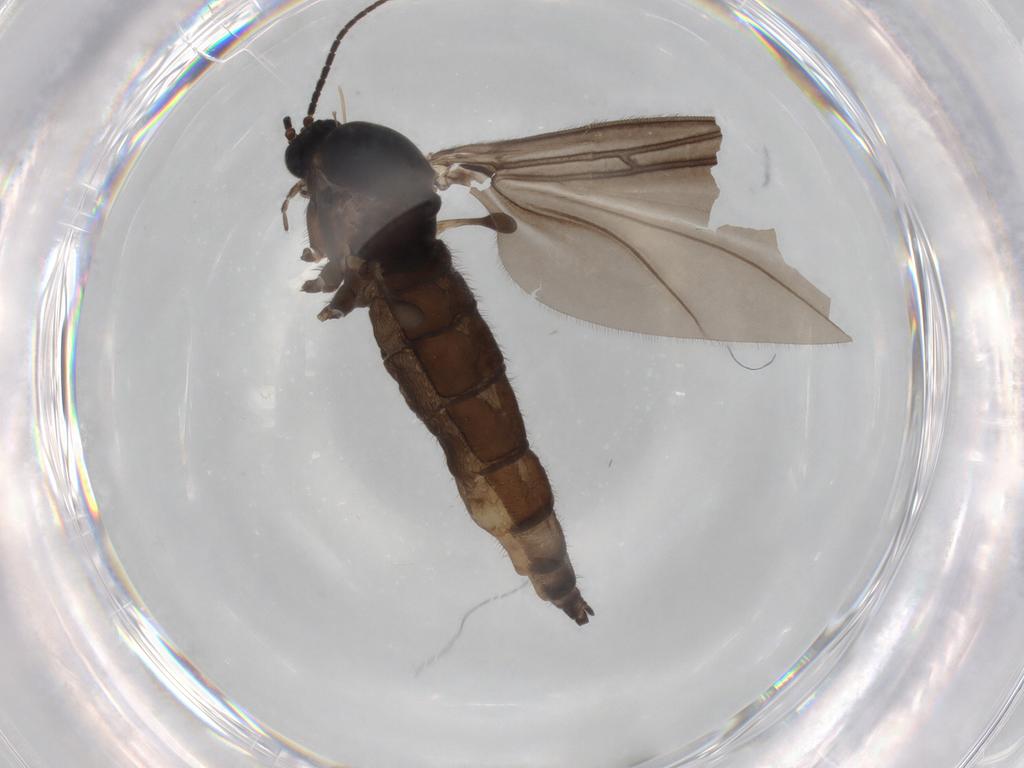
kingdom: Animalia
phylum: Arthropoda
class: Insecta
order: Diptera
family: Sciaridae
